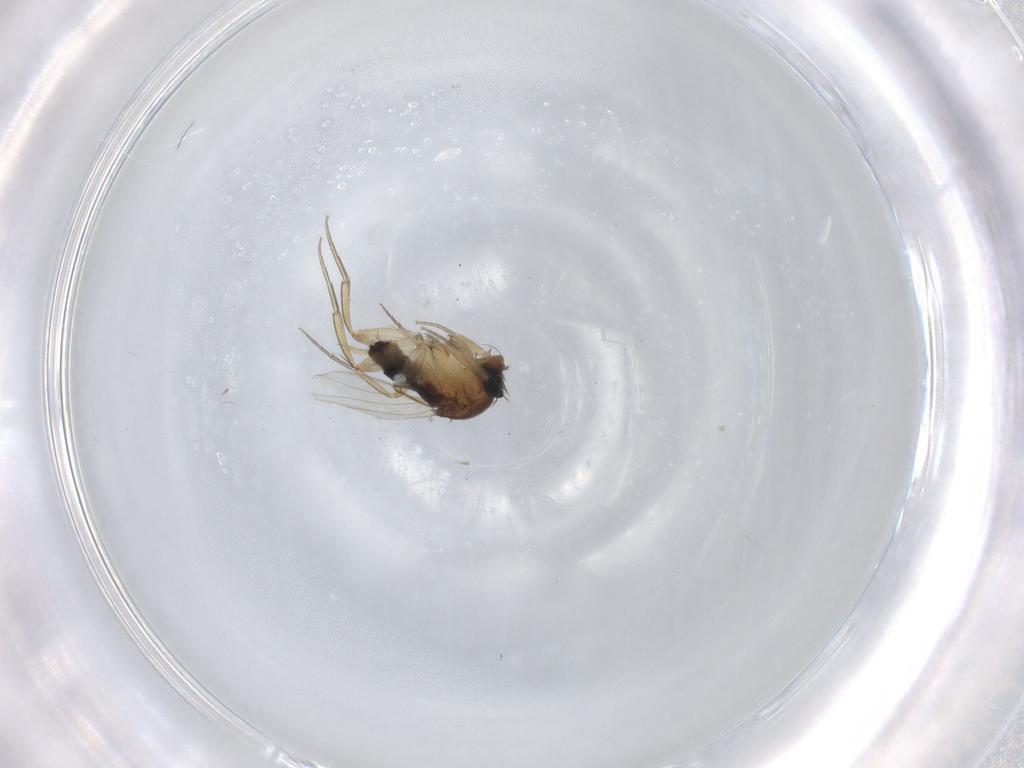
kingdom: Animalia
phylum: Arthropoda
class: Insecta
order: Diptera
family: Phoridae
